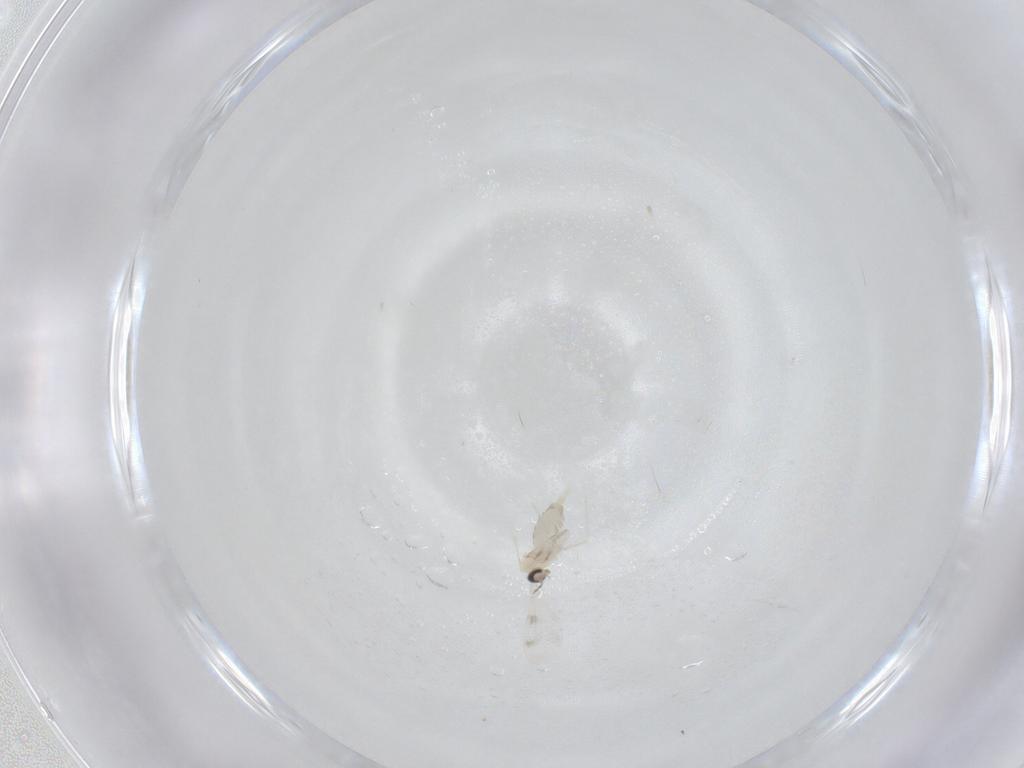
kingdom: Animalia
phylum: Arthropoda
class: Insecta
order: Diptera
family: Cecidomyiidae
